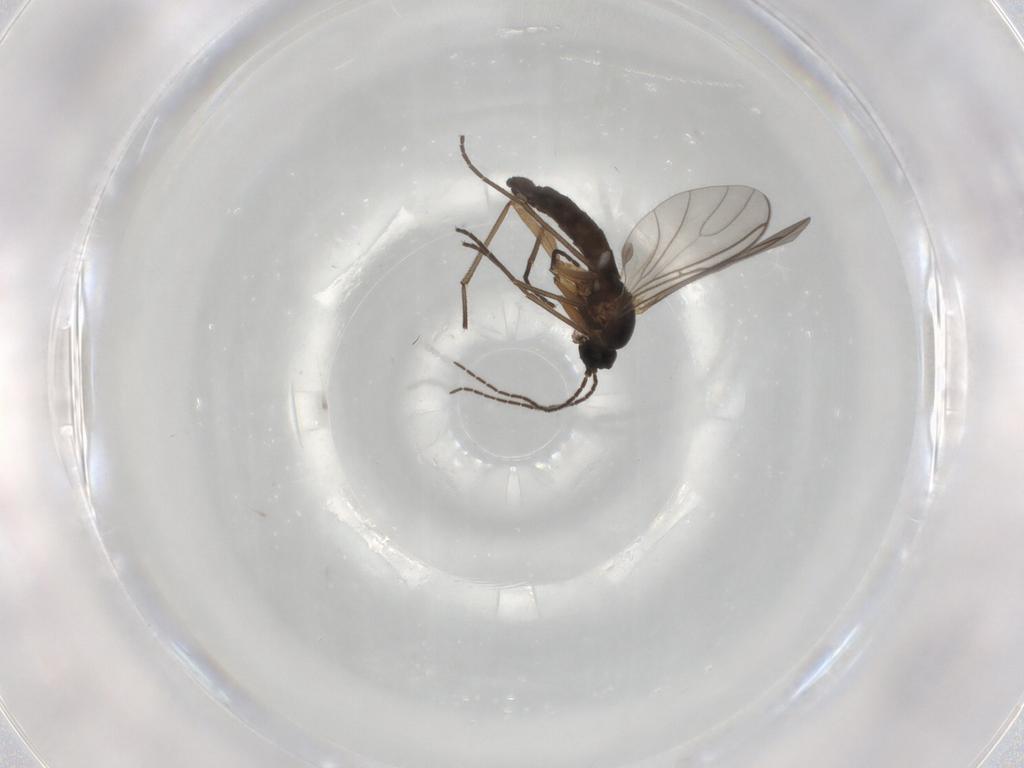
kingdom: Animalia
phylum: Arthropoda
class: Insecta
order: Diptera
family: Sciaridae
